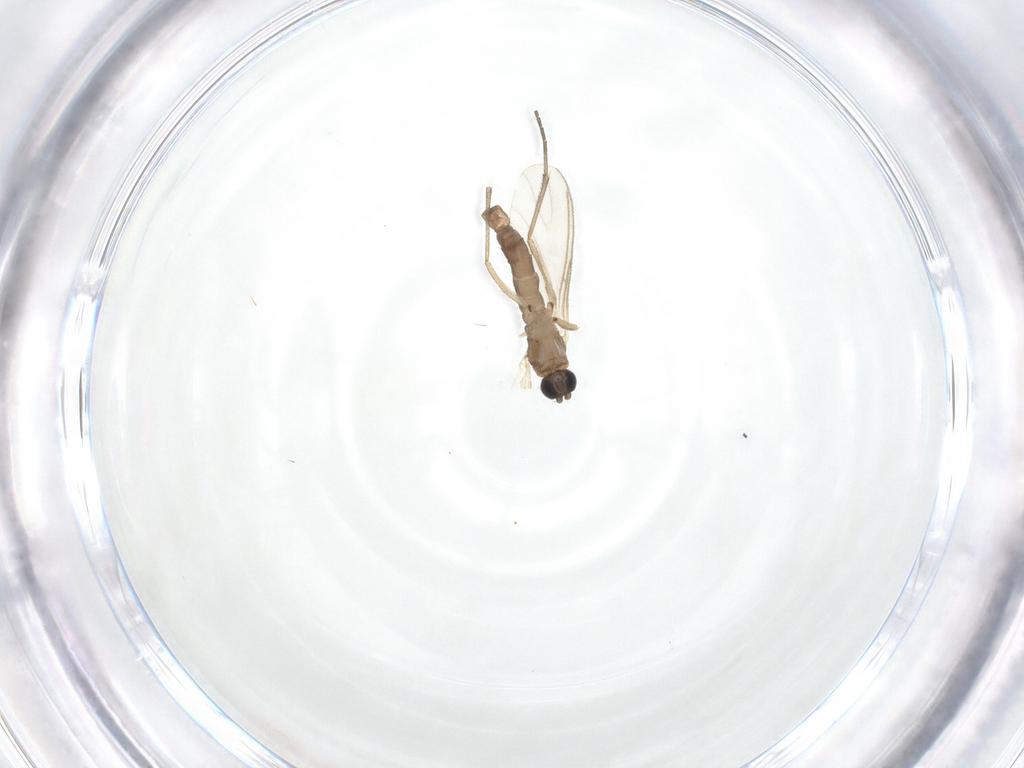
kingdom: Animalia
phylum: Arthropoda
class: Insecta
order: Diptera
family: Sciaridae
